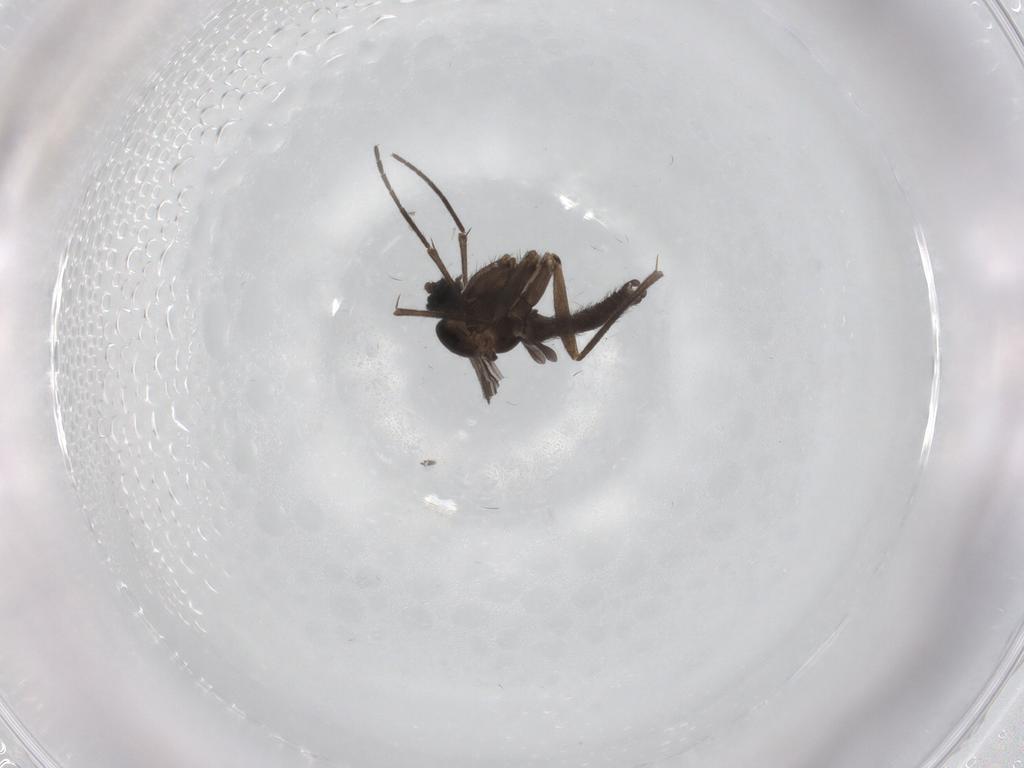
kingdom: Animalia
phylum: Arthropoda
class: Insecta
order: Diptera
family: Sciaridae
